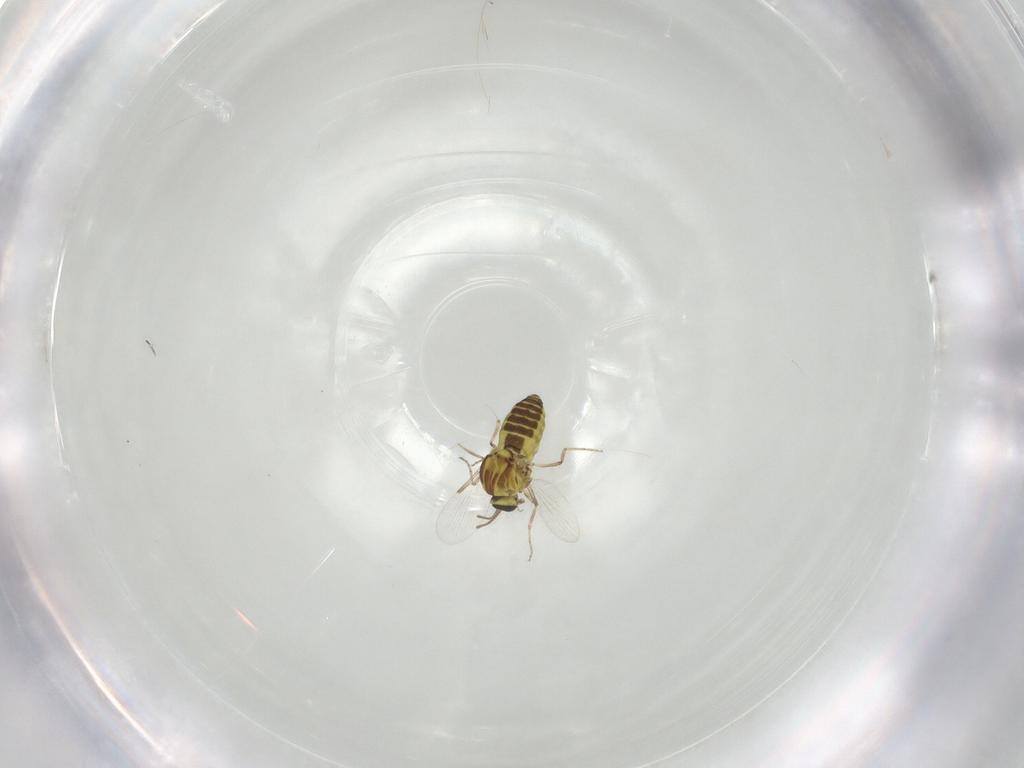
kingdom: Animalia
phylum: Arthropoda
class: Insecta
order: Diptera
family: Ceratopogonidae
